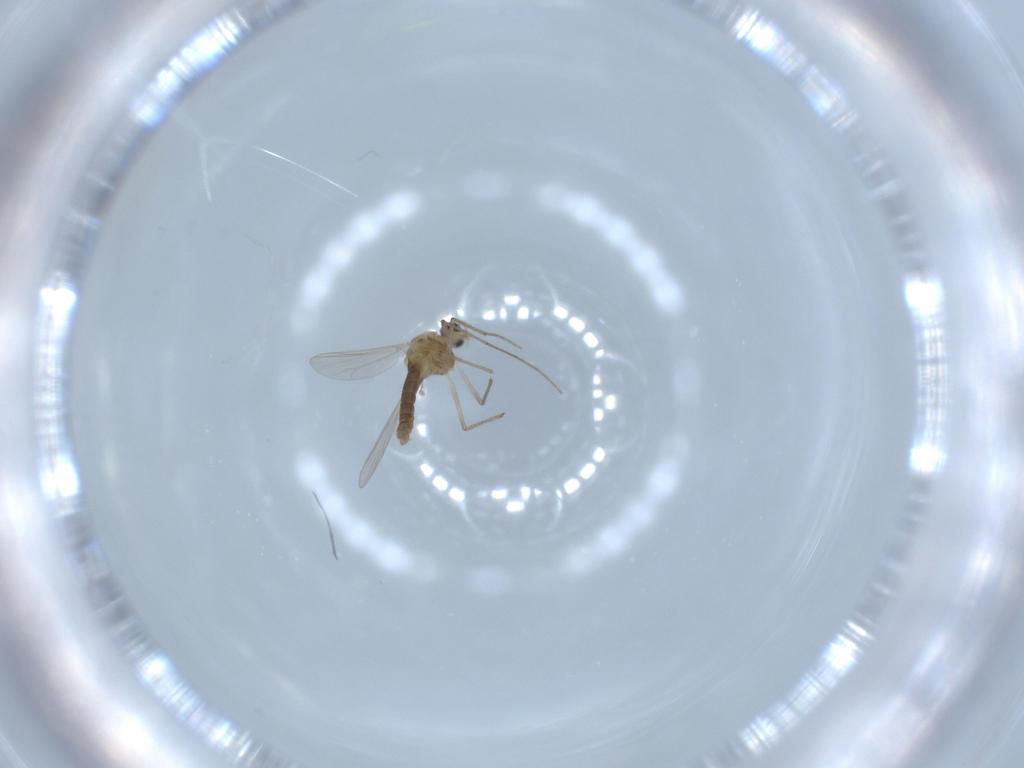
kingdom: Animalia
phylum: Arthropoda
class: Insecta
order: Diptera
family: Chironomidae
